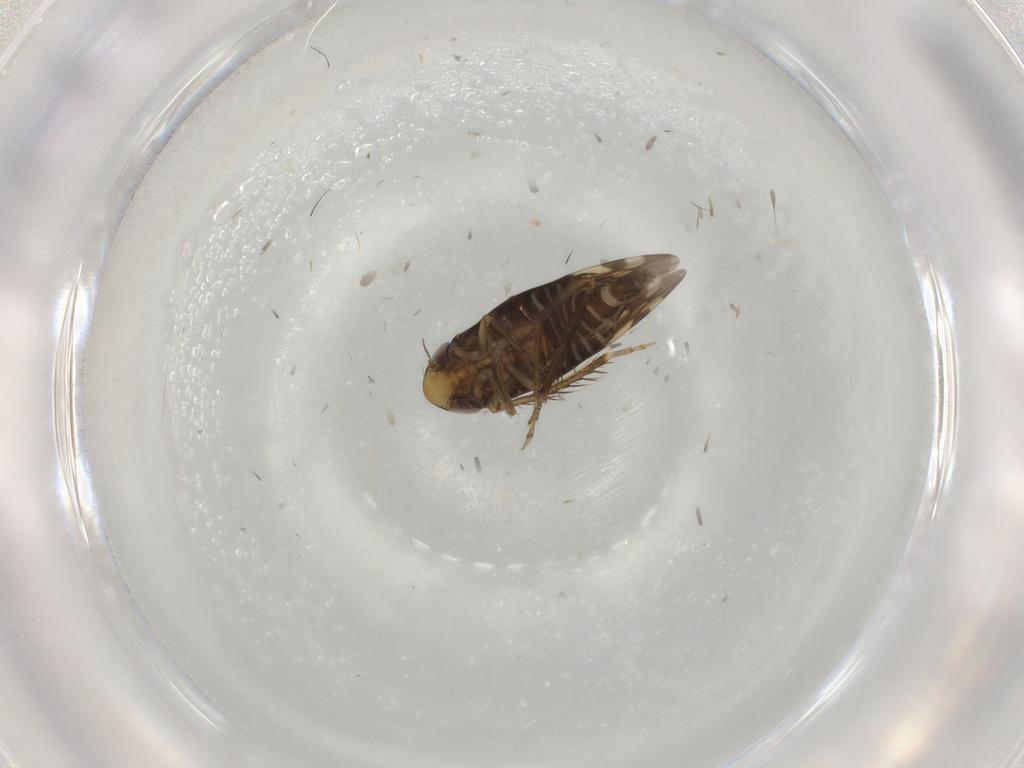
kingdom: Animalia
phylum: Arthropoda
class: Insecta
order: Hemiptera
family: Cicadellidae
